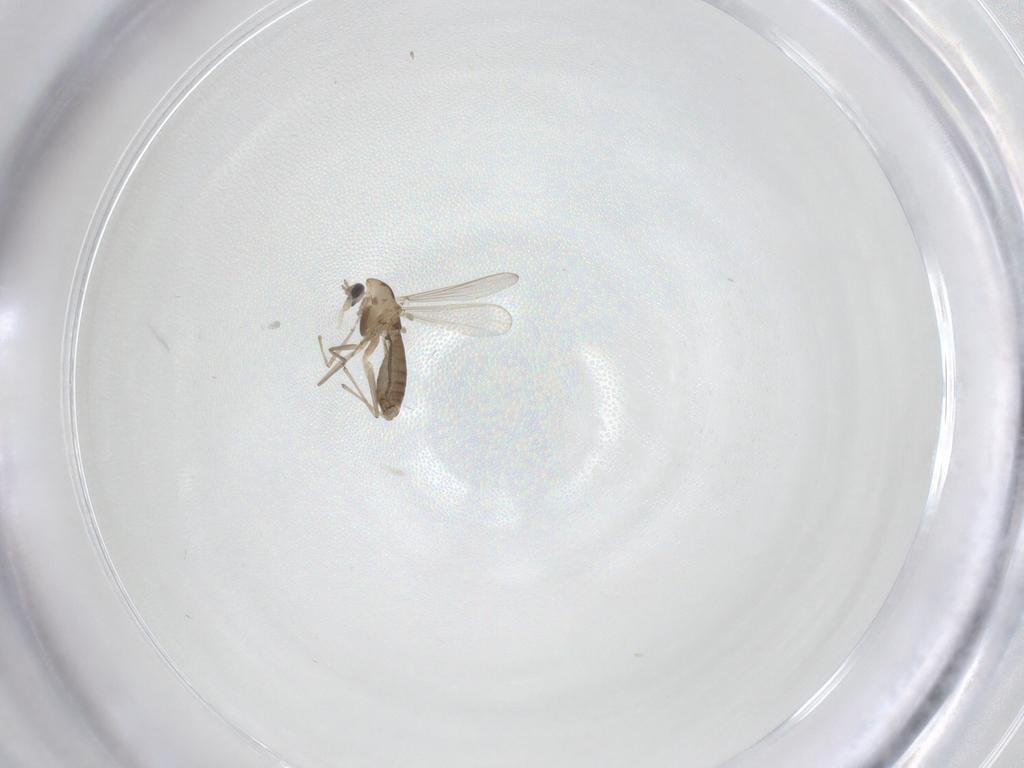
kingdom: Animalia
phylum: Arthropoda
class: Insecta
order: Diptera
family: Chironomidae
